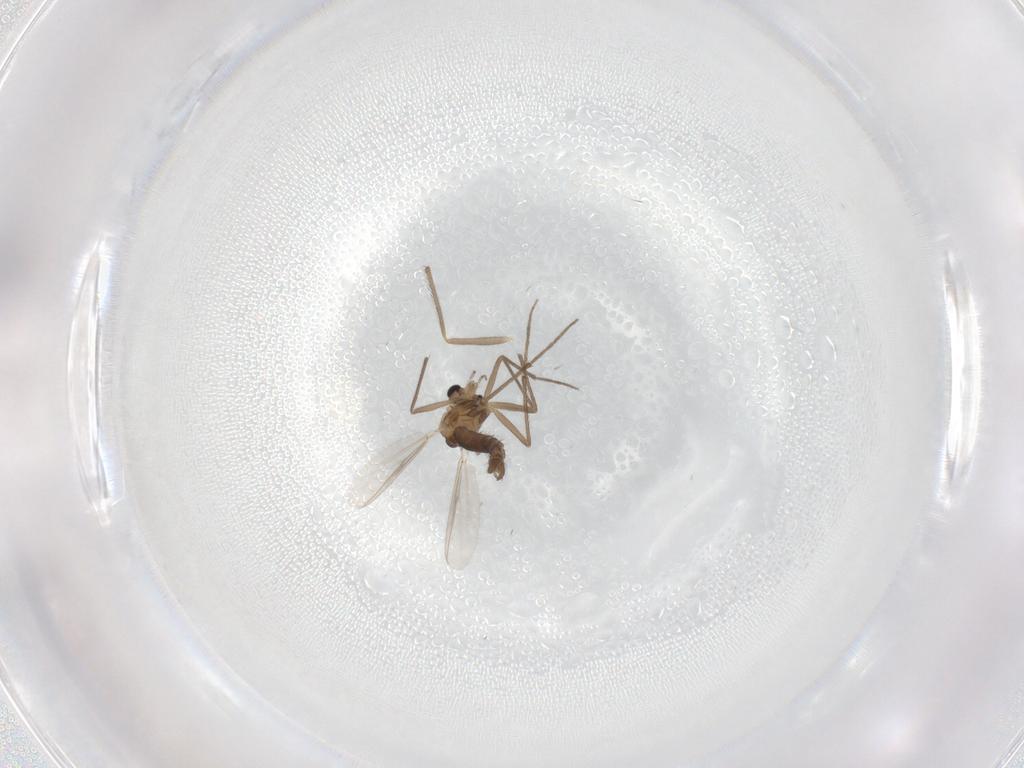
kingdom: Animalia
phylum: Arthropoda
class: Insecta
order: Diptera
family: Chironomidae
